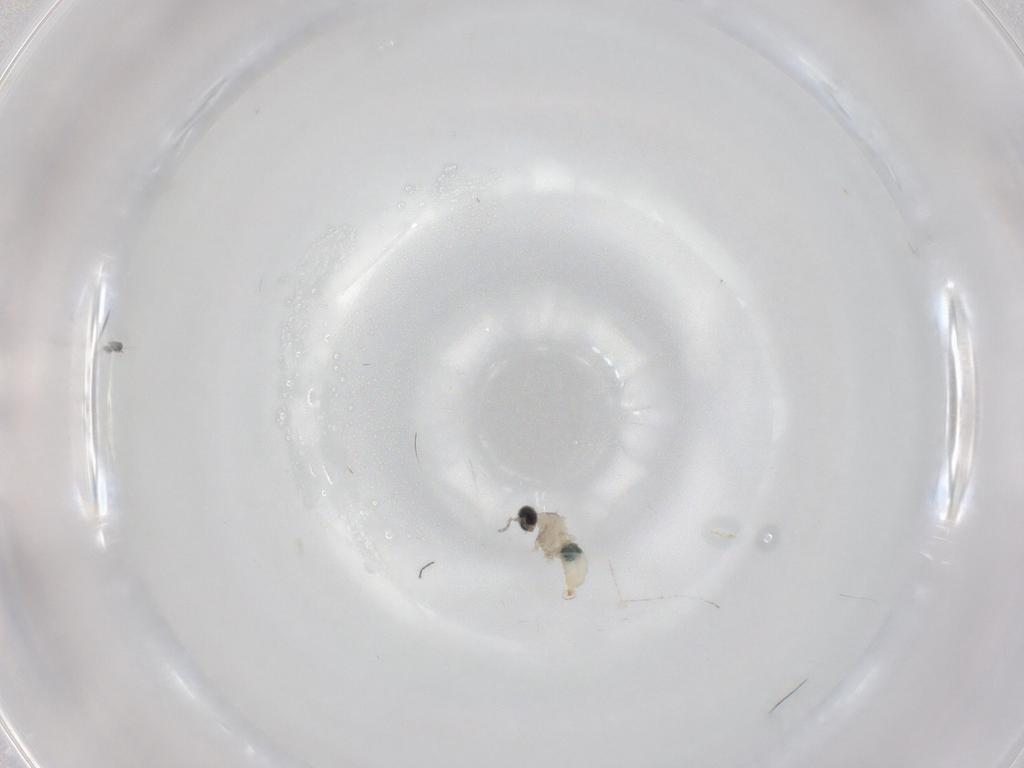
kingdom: Animalia
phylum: Arthropoda
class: Insecta
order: Diptera
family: Cecidomyiidae
